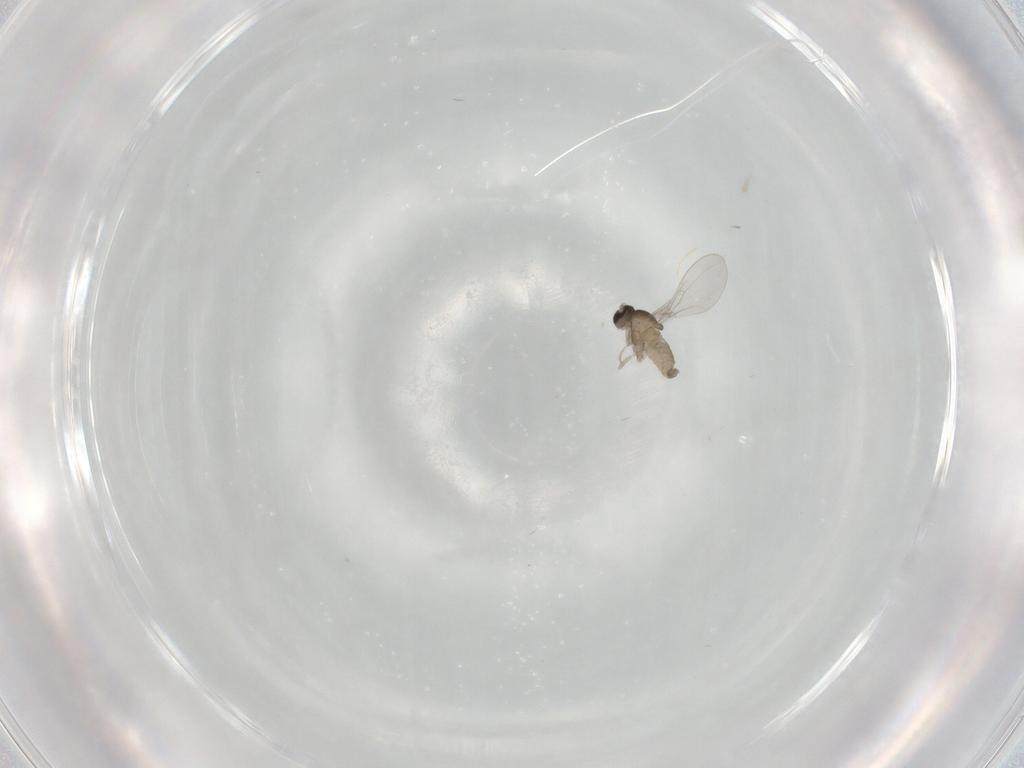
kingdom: Animalia
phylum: Arthropoda
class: Insecta
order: Diptera
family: Cecidomyiidae
